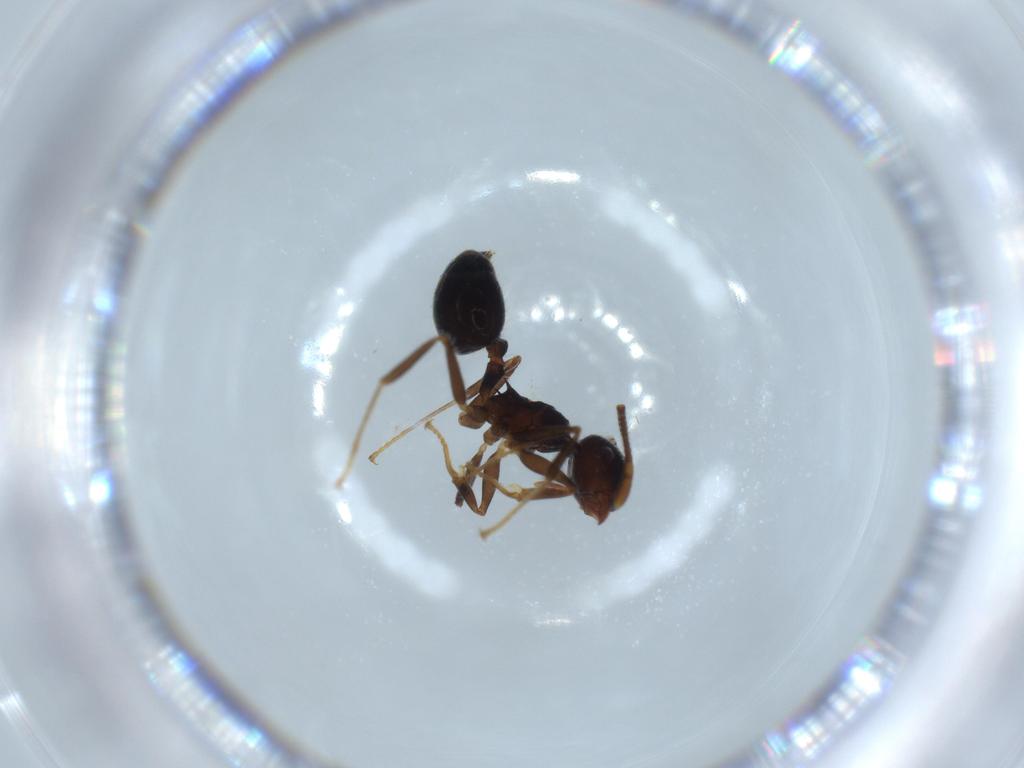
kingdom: Animalia
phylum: Arthropoda
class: Insecta
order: Hymenoptera
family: Formicidae
